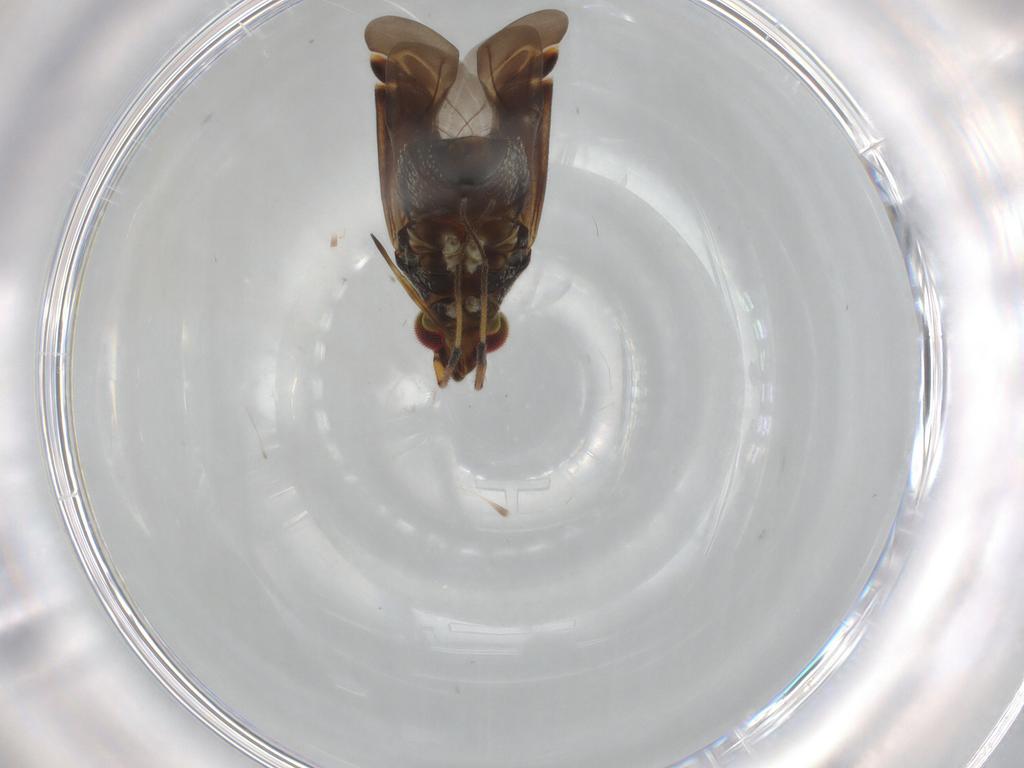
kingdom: Animalia
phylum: Arthropoda
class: Insecta
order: Hemiptera
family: Miridae
